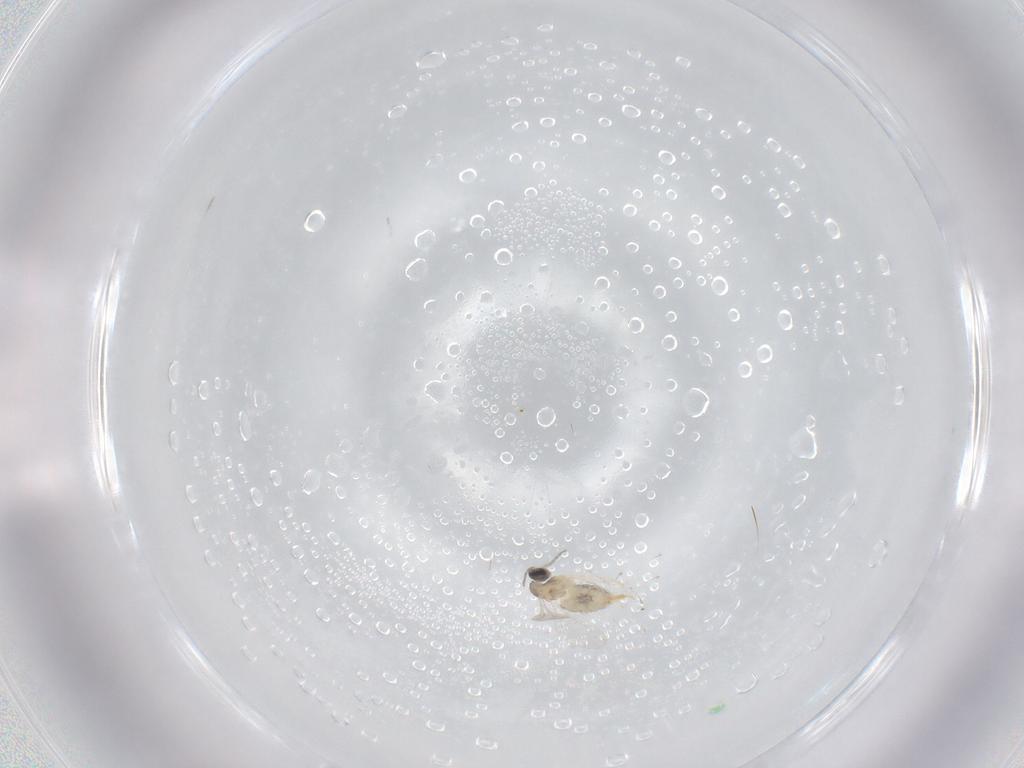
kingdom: Animalia
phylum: Arthropoda
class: Insecta
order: Diptera
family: Cecidomyiidae
